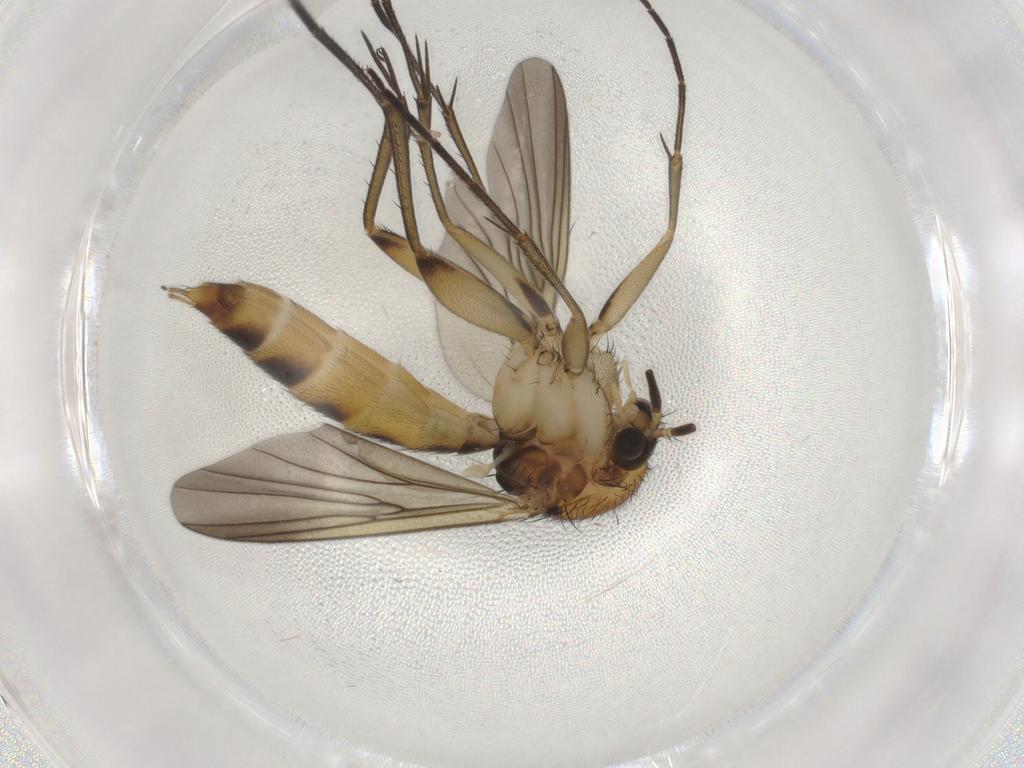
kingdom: Animalia
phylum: Arthropoda
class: Insecta
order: Diptera
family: Mycetophilidae
